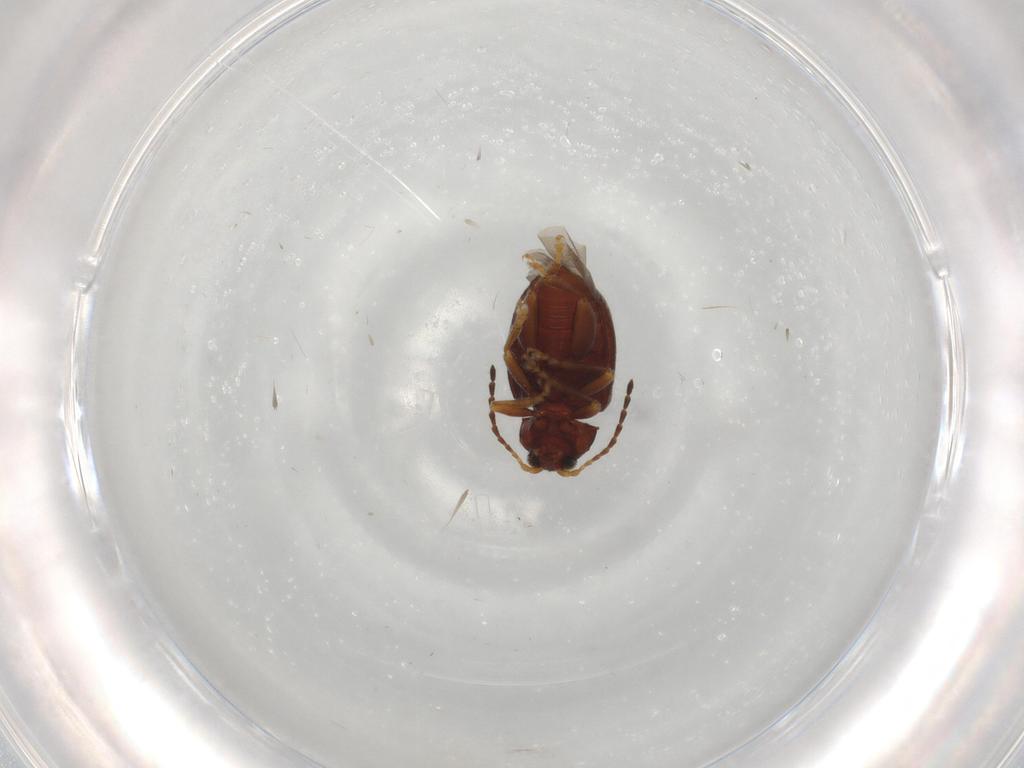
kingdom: Animalia
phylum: Arthropoda
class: Insecta
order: Coleoptera
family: Chrysomelidae
